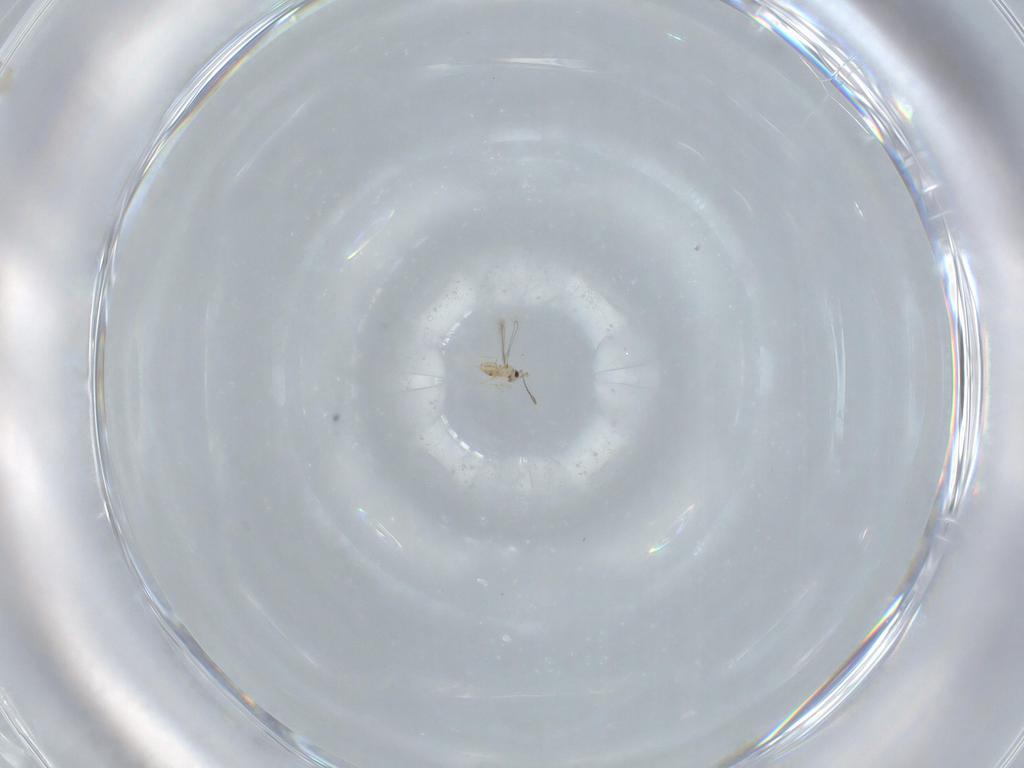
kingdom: Animalia
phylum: Arthropoda
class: Insecta
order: Hymenoptera
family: Mymaridae
